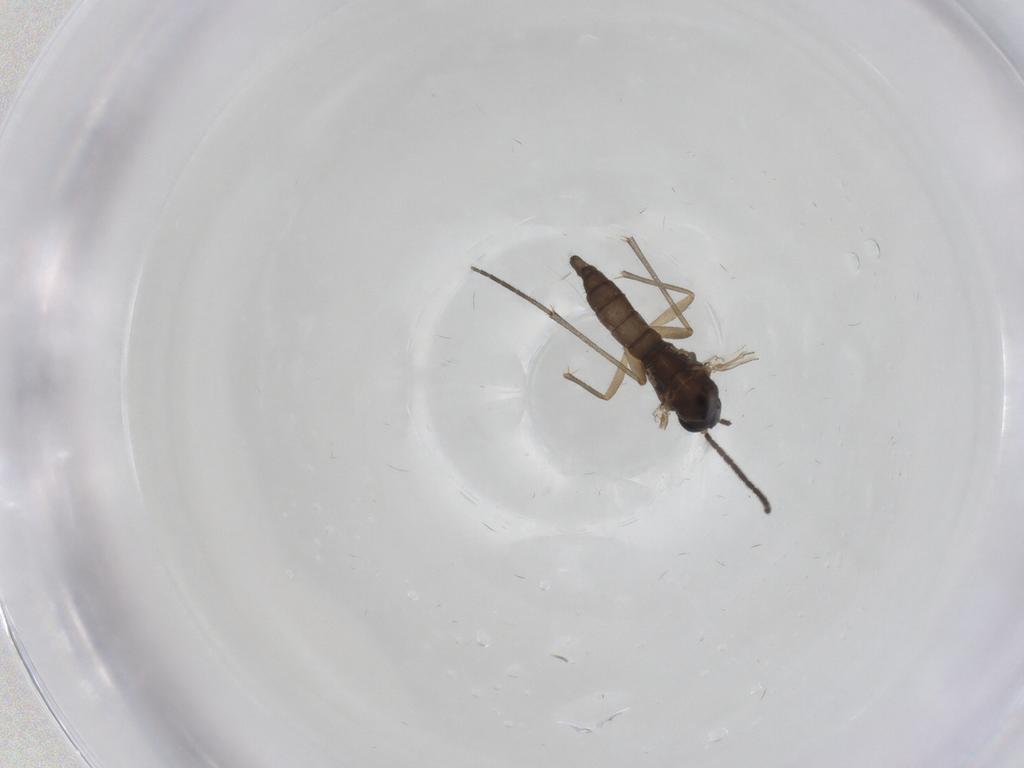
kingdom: Animalia
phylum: Arthropoda
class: Insecta
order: Diptera
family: Sciaridae
